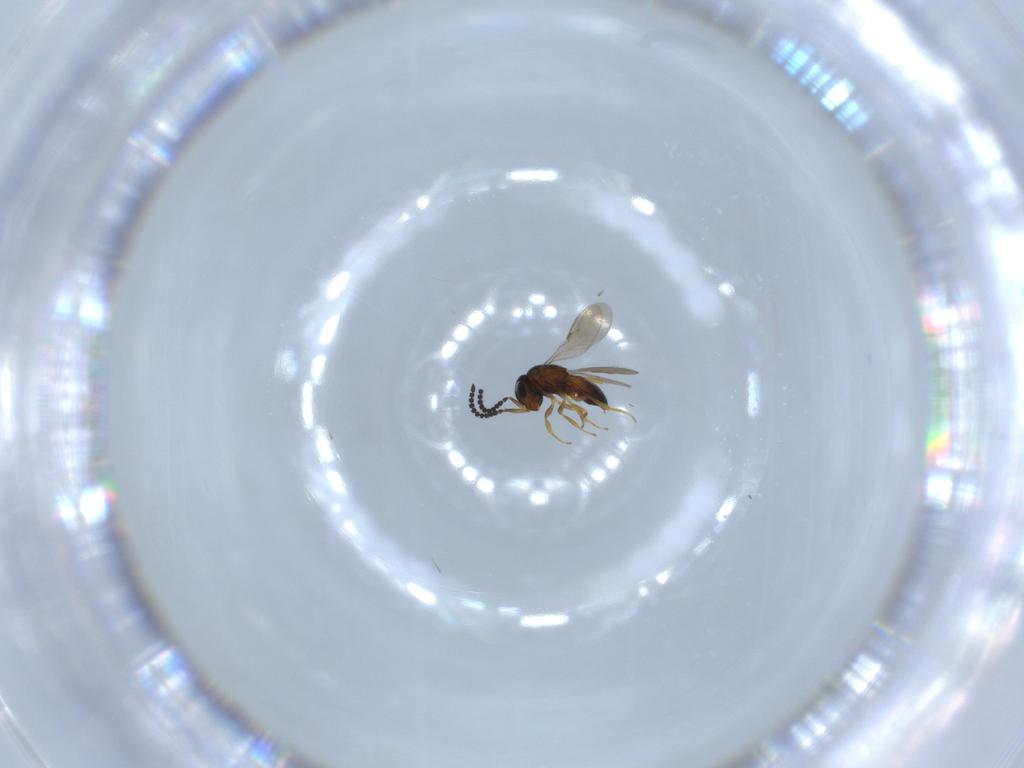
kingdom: Animalia
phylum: Arthropoda
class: Insecta
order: Hymenoptera
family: Scelionidae
